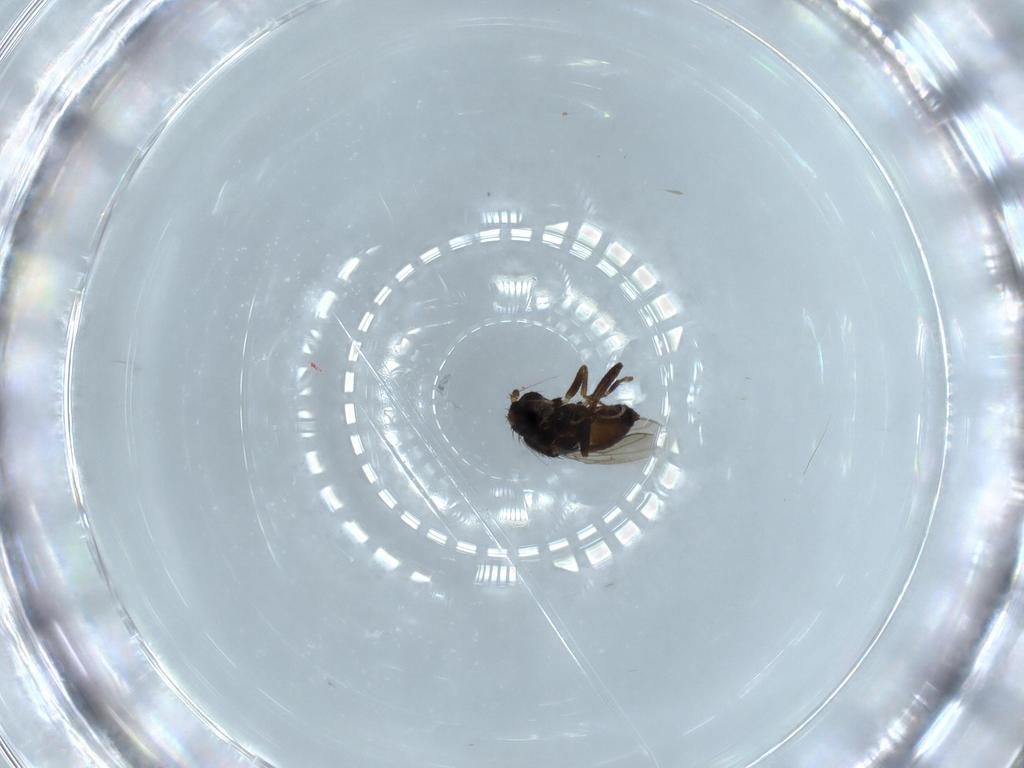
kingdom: Animalia
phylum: Arthropoda
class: Insecta
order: Diptera
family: Sphaeroceridae
